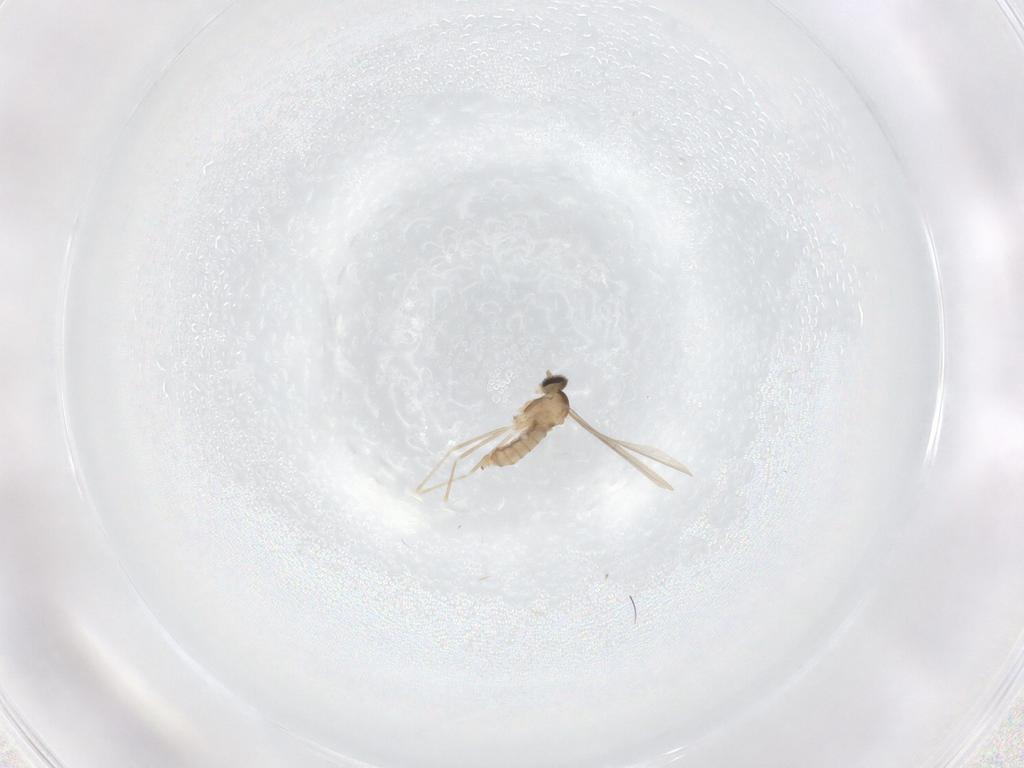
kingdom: Animalia
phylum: Arthropoda
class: Insecta
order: Diptera
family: Cecidomyiidae
